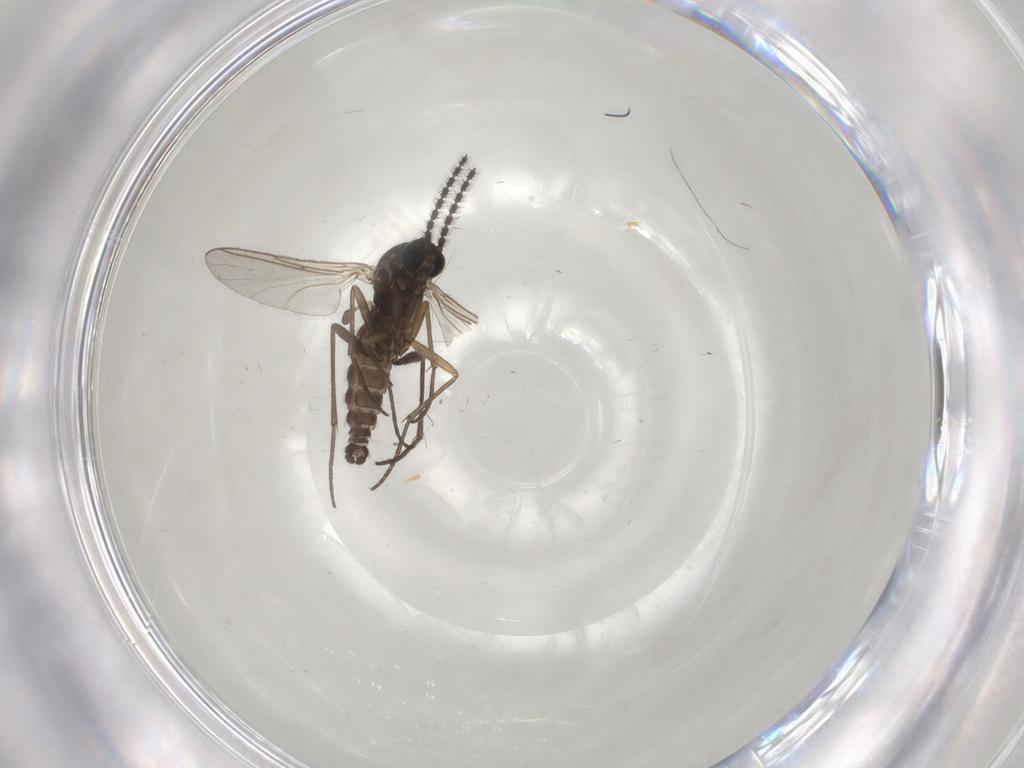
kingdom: Animalia
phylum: Arthropoda
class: Insecta
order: Diptera
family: Sciaridae
